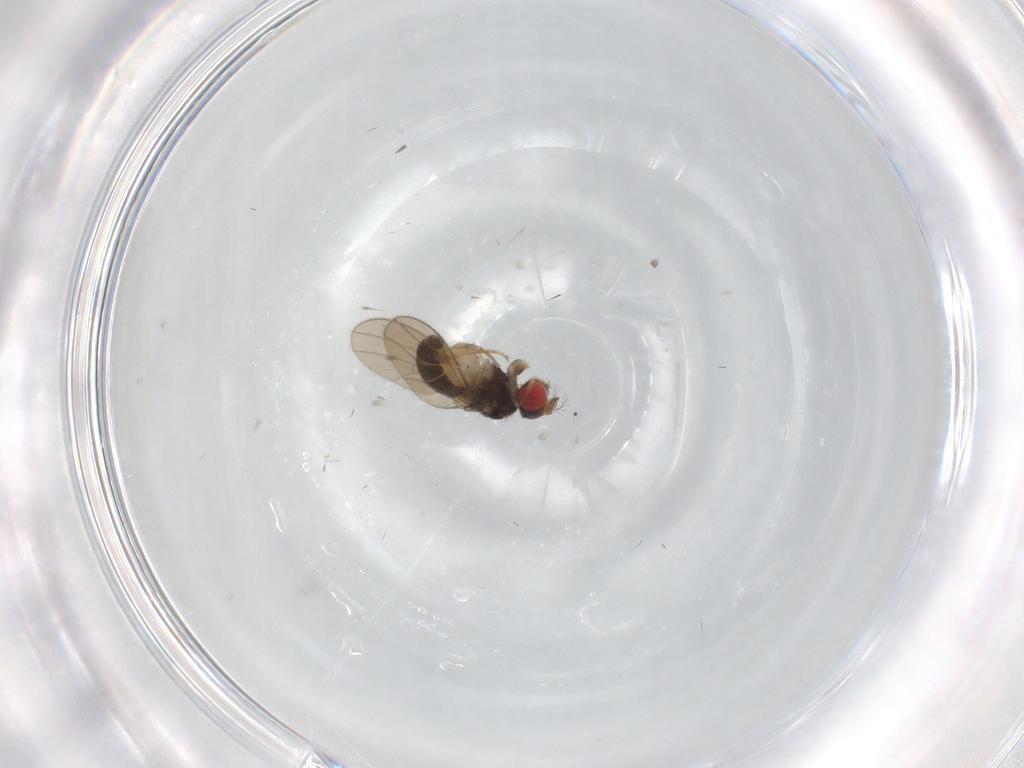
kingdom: Animalia
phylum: Arthropoda
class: Insecta
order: Diptera
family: Drosophilidae
